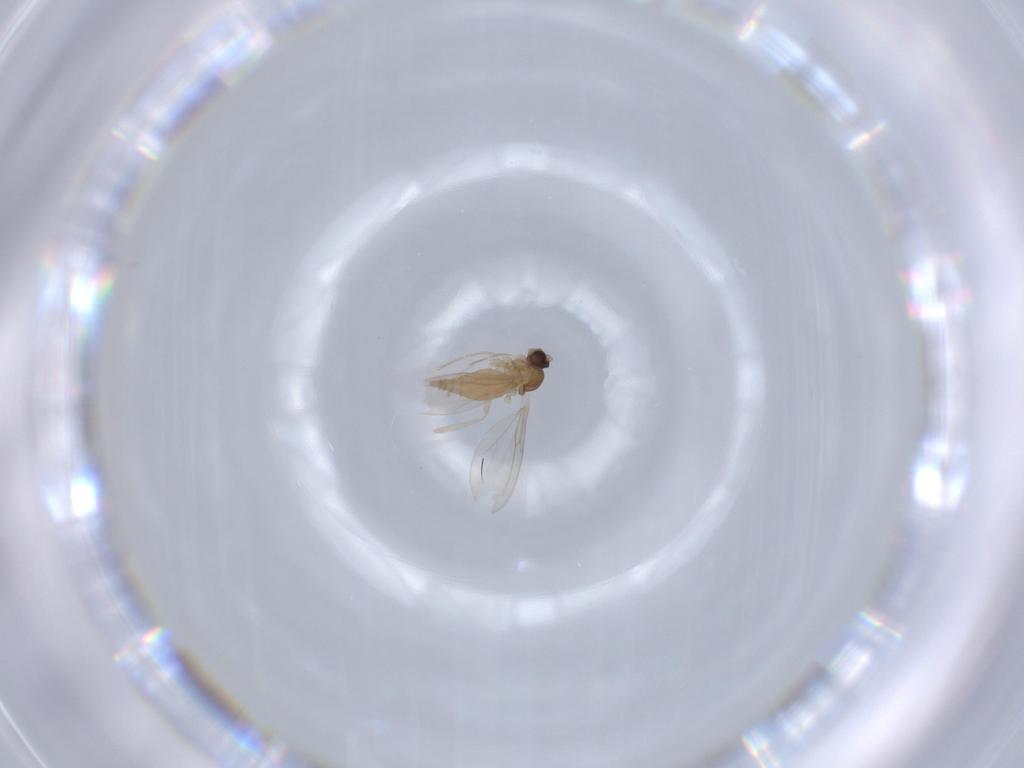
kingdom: Animalia
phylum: Arthropoda
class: Insecta
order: Diptera
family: Cecidomyiidae
